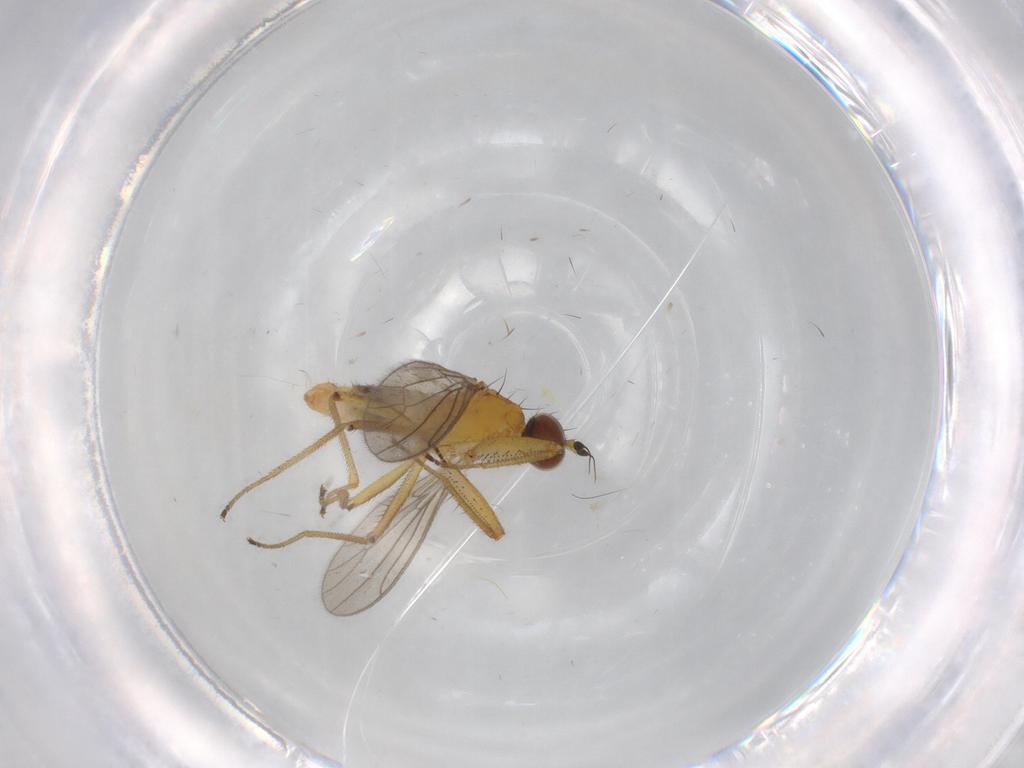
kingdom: Animalia
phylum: Arthropoda
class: Insecta
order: Diptera
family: Empididae
